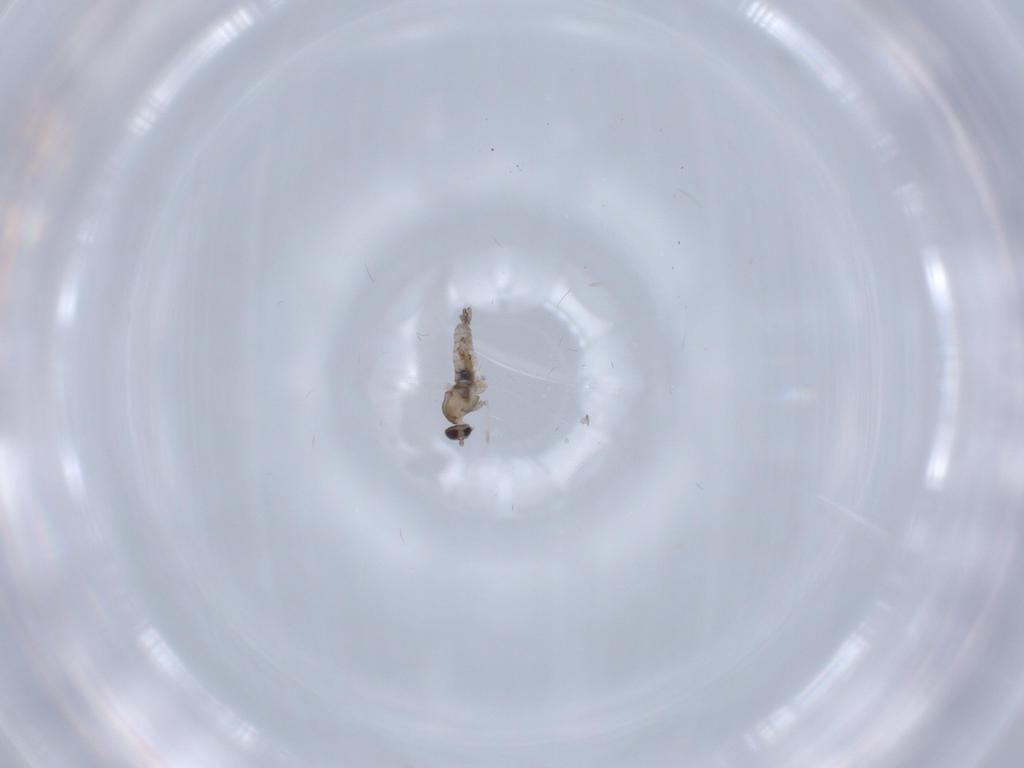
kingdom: Animalia
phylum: Arthropoda
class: Insecta
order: Diptera
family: Cecidomyiidae
